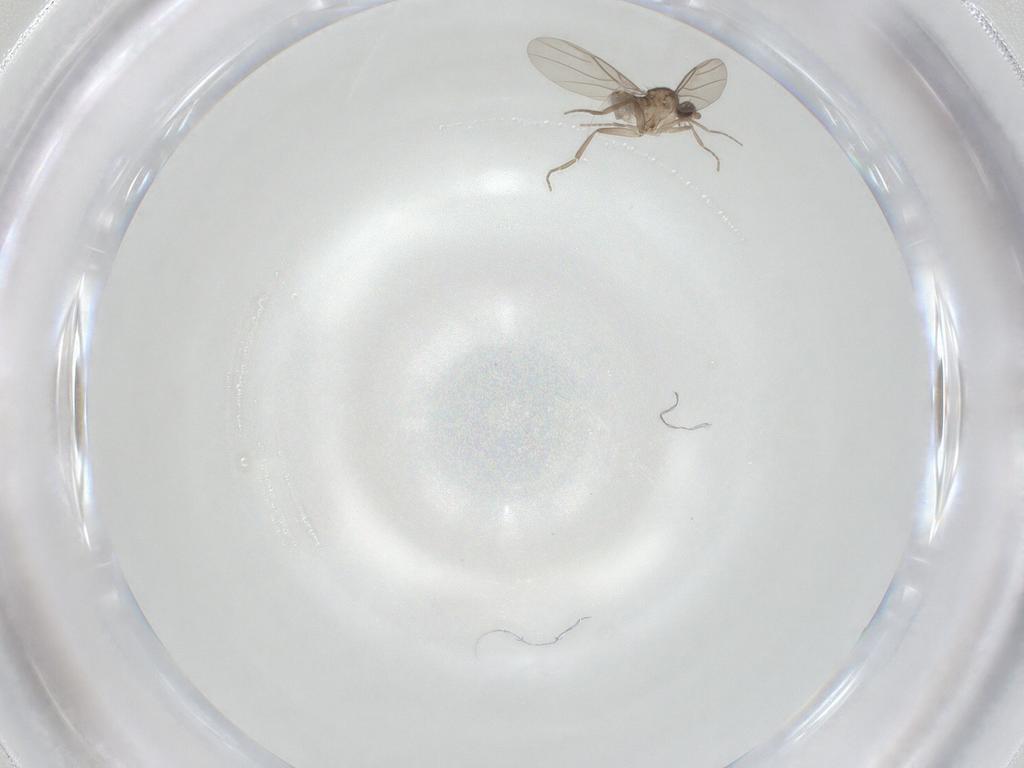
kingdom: Animalia
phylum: Arthropoda
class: Insecta
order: Diptera
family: Phoridae
